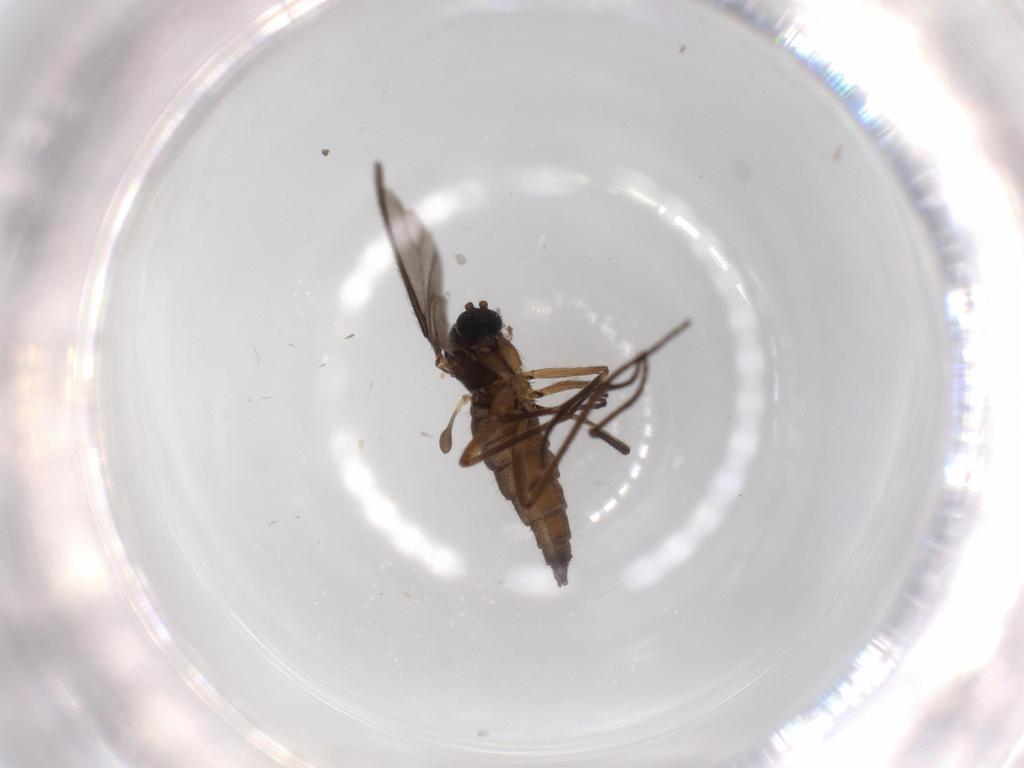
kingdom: Animalia
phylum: Arthropoda
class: Insecta
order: Diptera
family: Sciaridae
